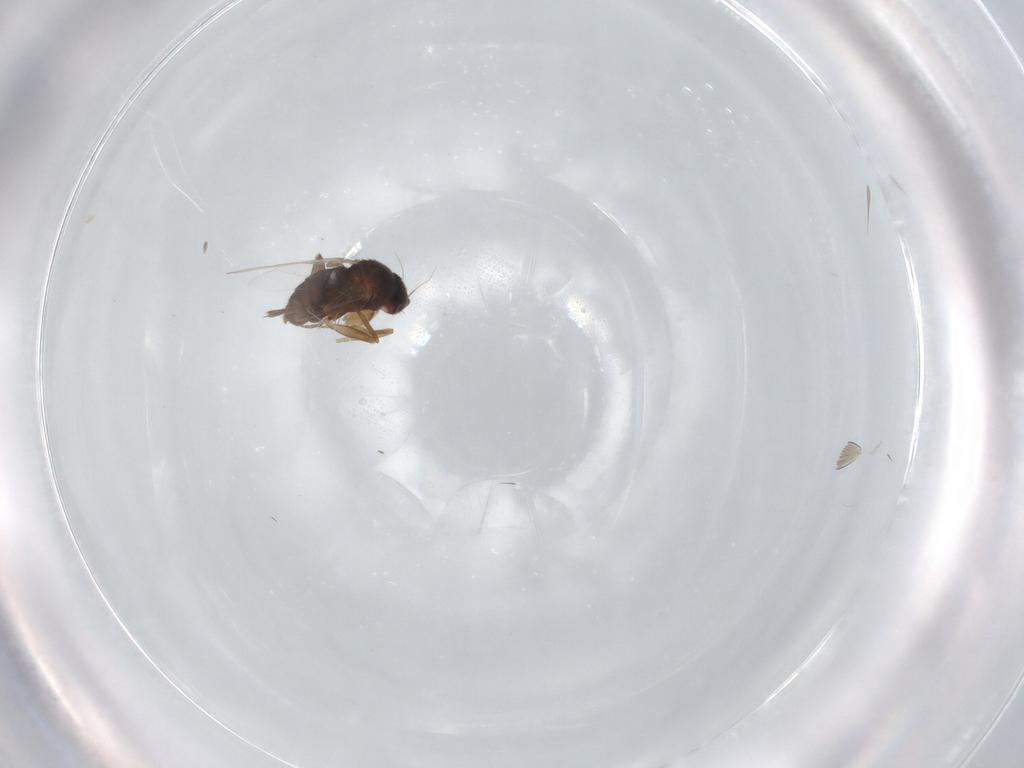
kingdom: Animalia
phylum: Arthropoda
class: Insecta
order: Diptera
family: Phoridae
